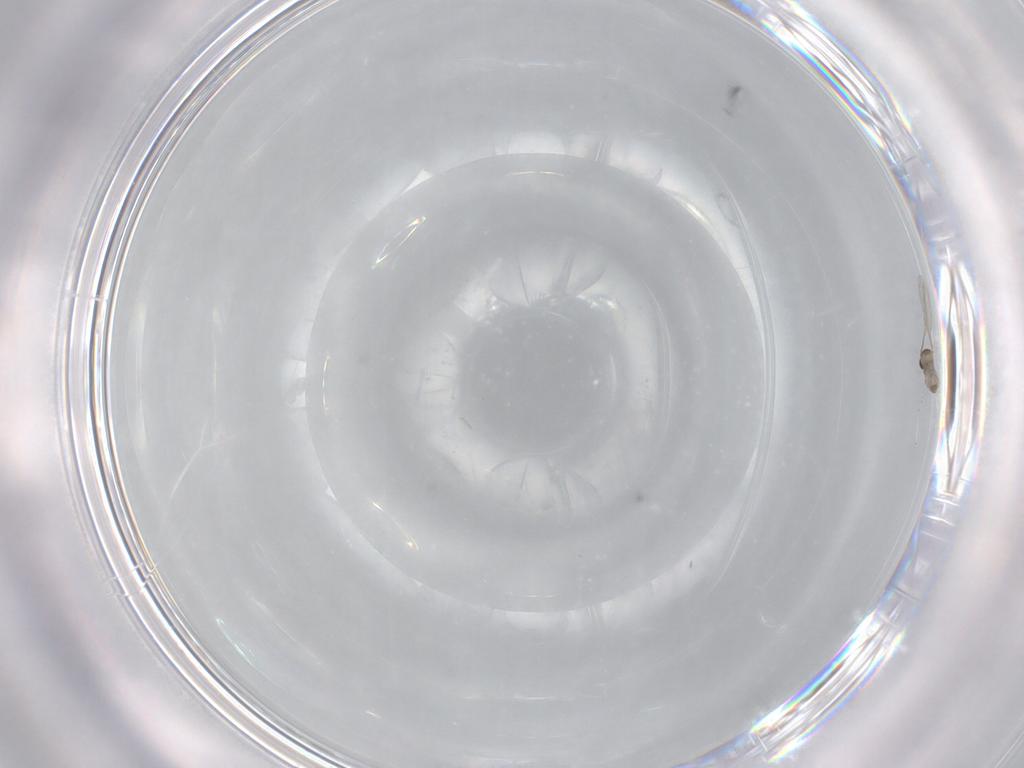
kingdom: Animalia
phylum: Arthropoda
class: Insecta
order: Diptera
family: Cecidomyiidae
